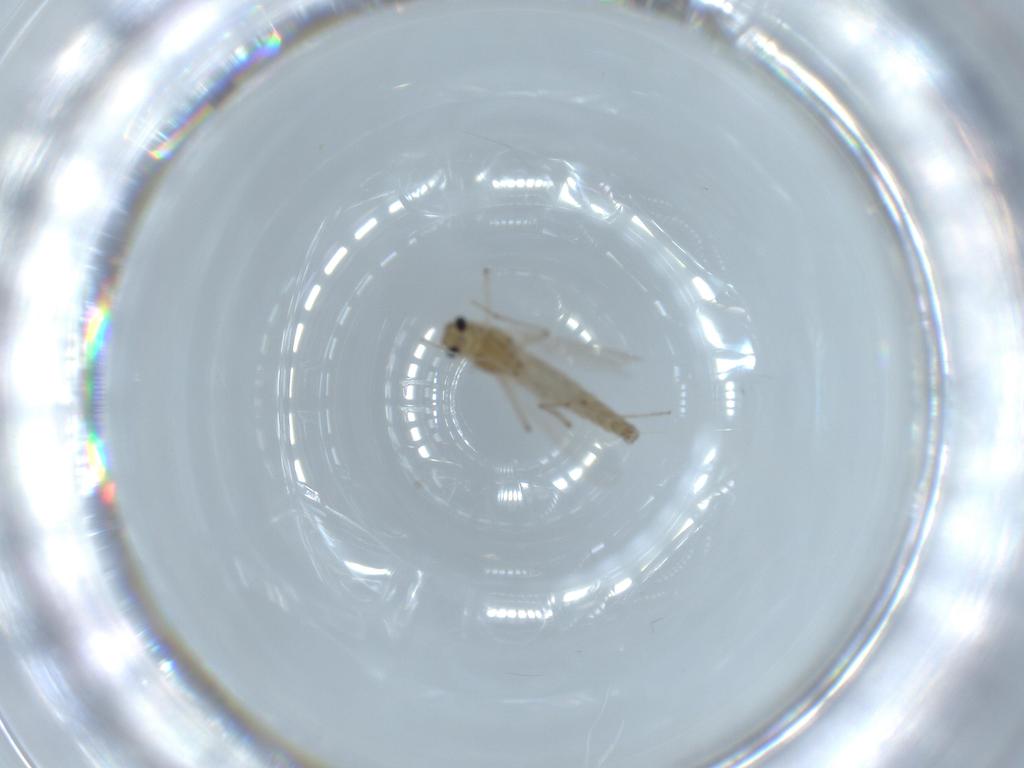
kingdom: Animalia
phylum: Arthropoda
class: Insecta
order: Diptera
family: Chironomidae
